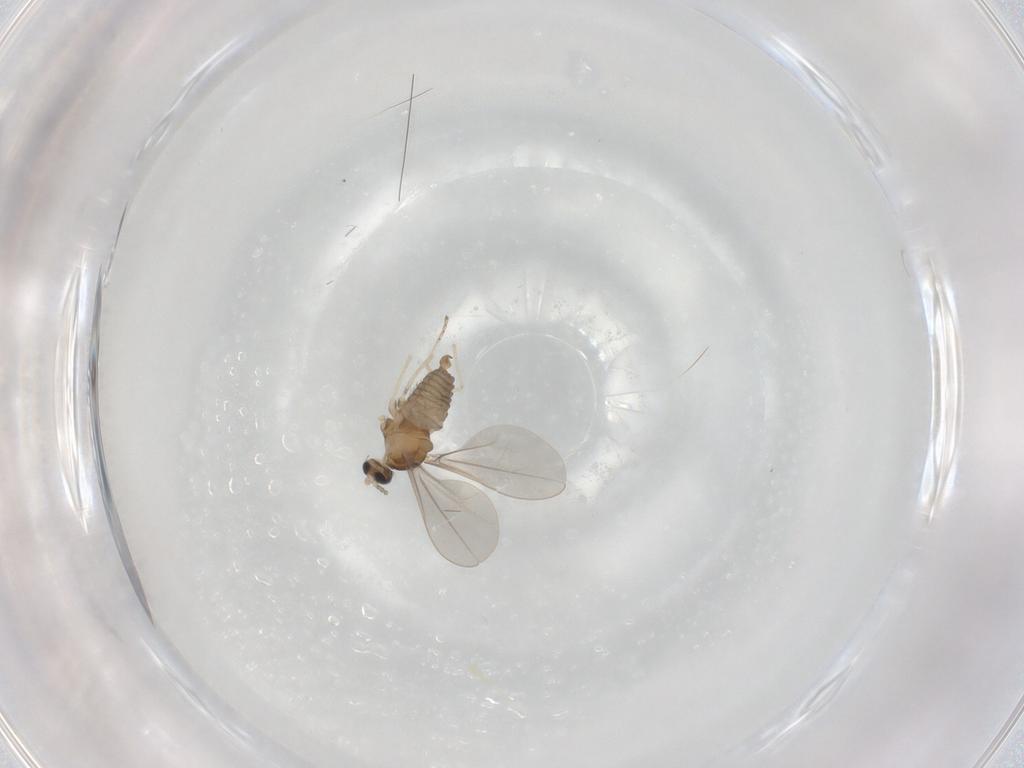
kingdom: Animalia
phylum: Arthropoda
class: Insecta
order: Diptera
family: Cecidomyiidae
